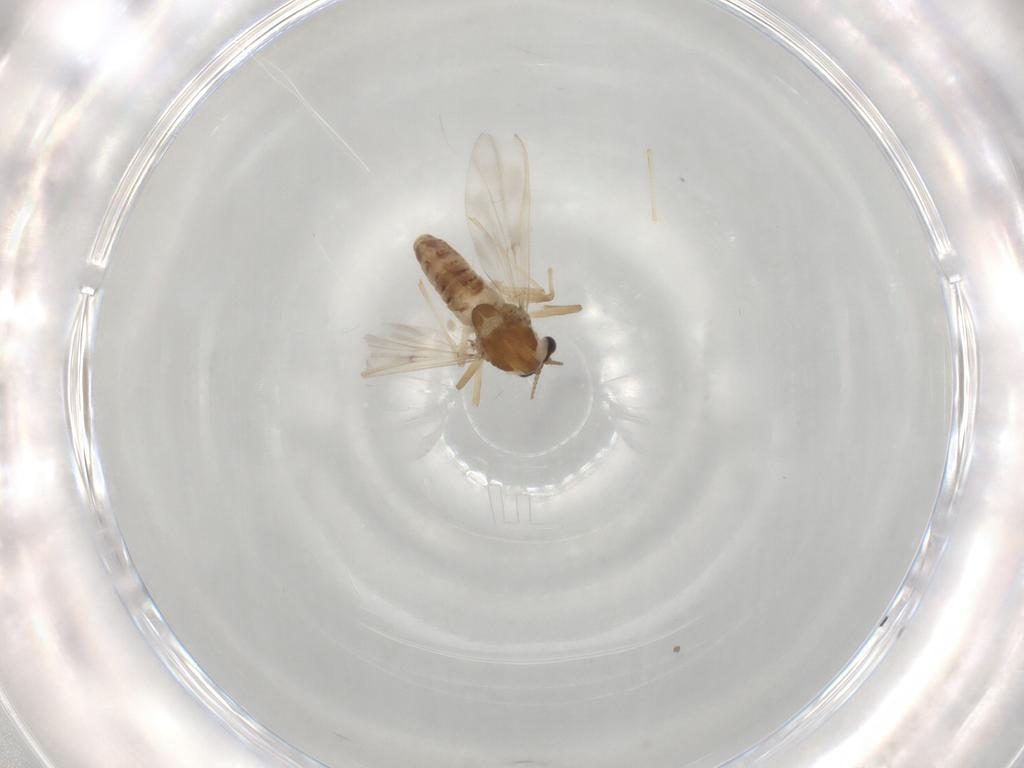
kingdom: Animalia
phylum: Arthropoda
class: Insecta
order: Diptera
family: Chironomidae
